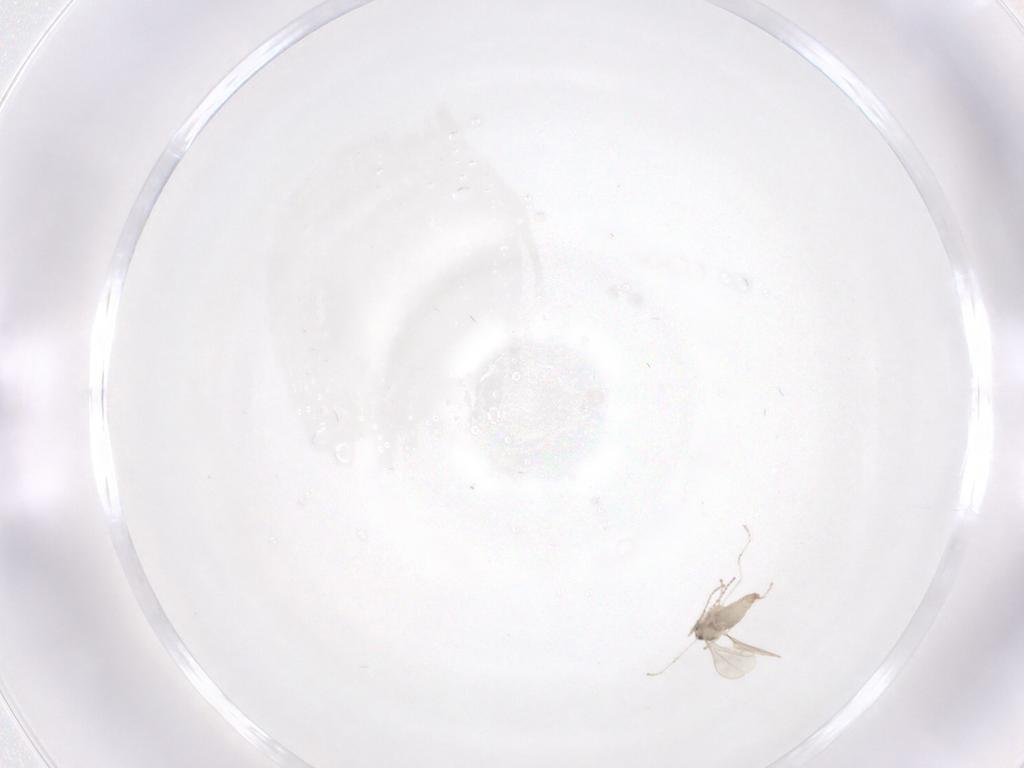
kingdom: Animalia
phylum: Arthropoda
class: Insecta
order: Diptera
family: Cecidomyiidae
